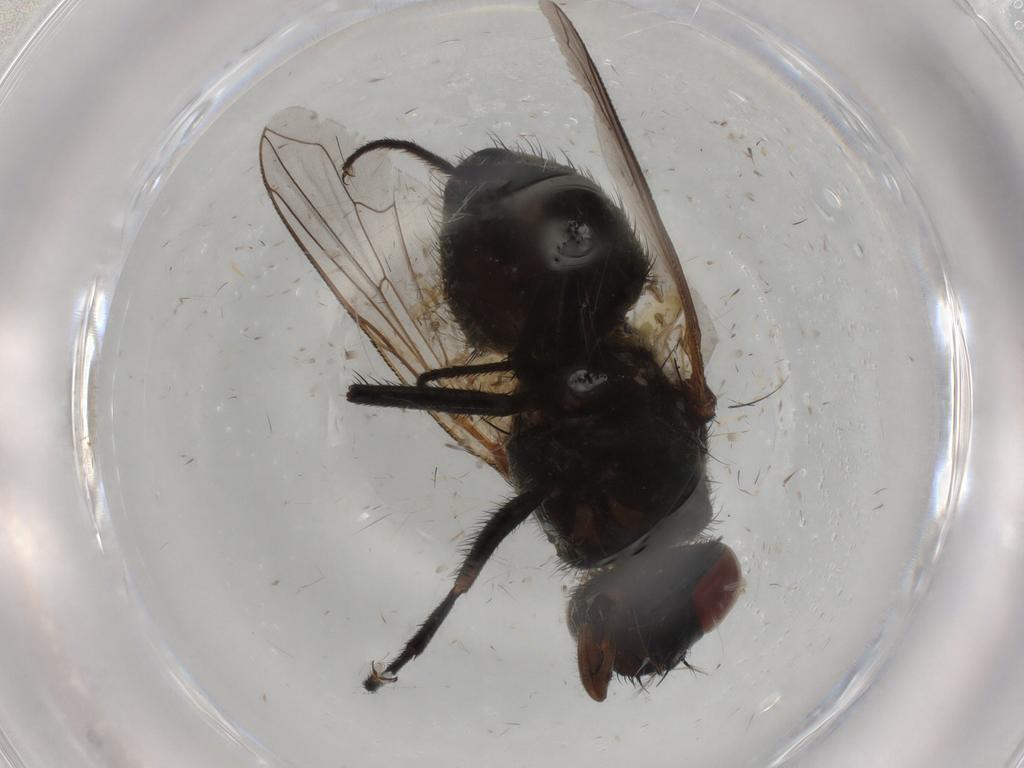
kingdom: Animalia
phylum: Arthropoda
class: Insecta
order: Diptera
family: Muscidae
